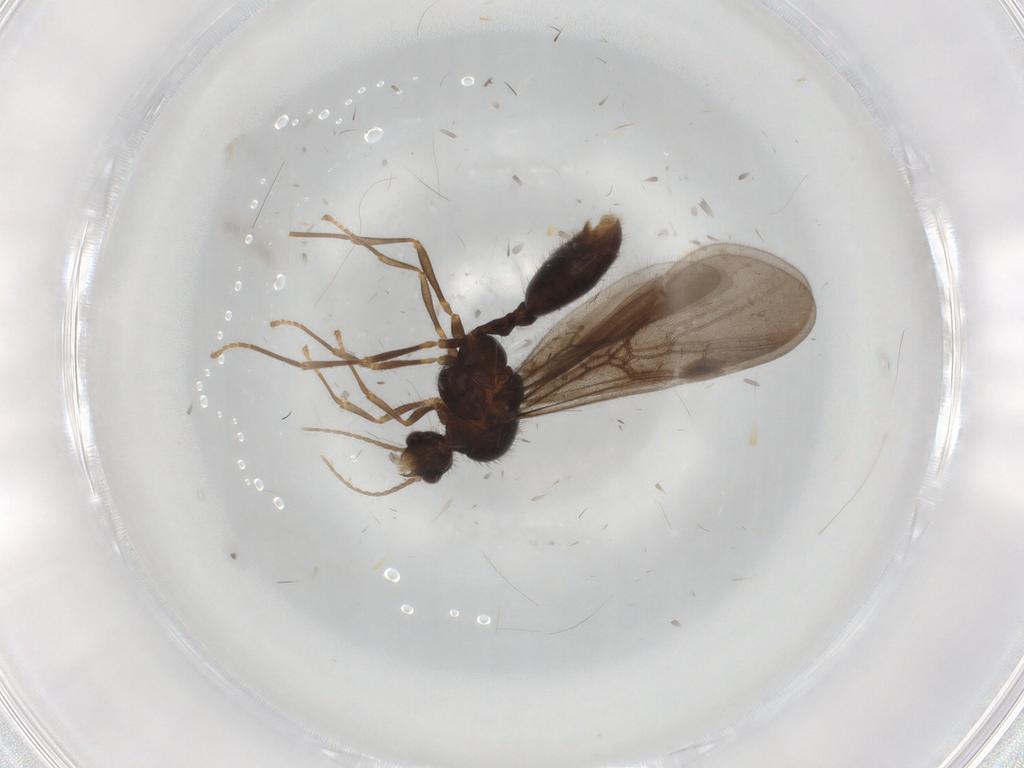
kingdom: Animalia
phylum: Arthropoda
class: Insecta
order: Hymenoptera
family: Formicidae
